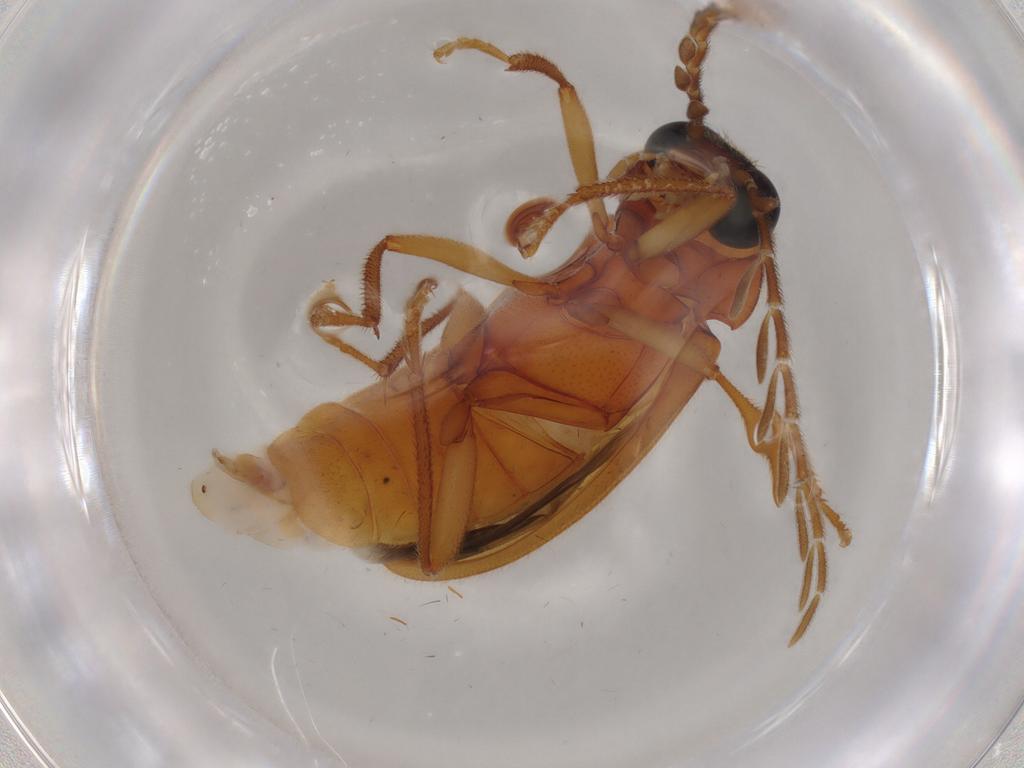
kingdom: Animalia
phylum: Arthropoda
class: Insecta
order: Coleoptera
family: Ptilodactylidae
